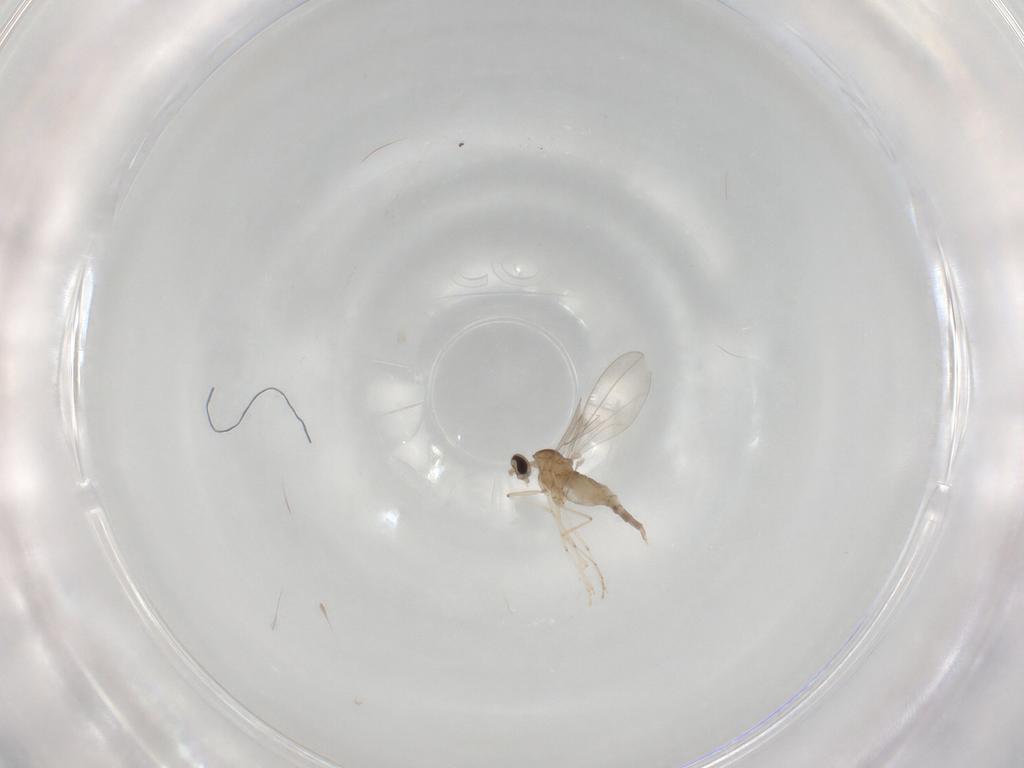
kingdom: Animalia
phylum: Arthropoda
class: Insecta
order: Diptera
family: Cecidomyiidae
